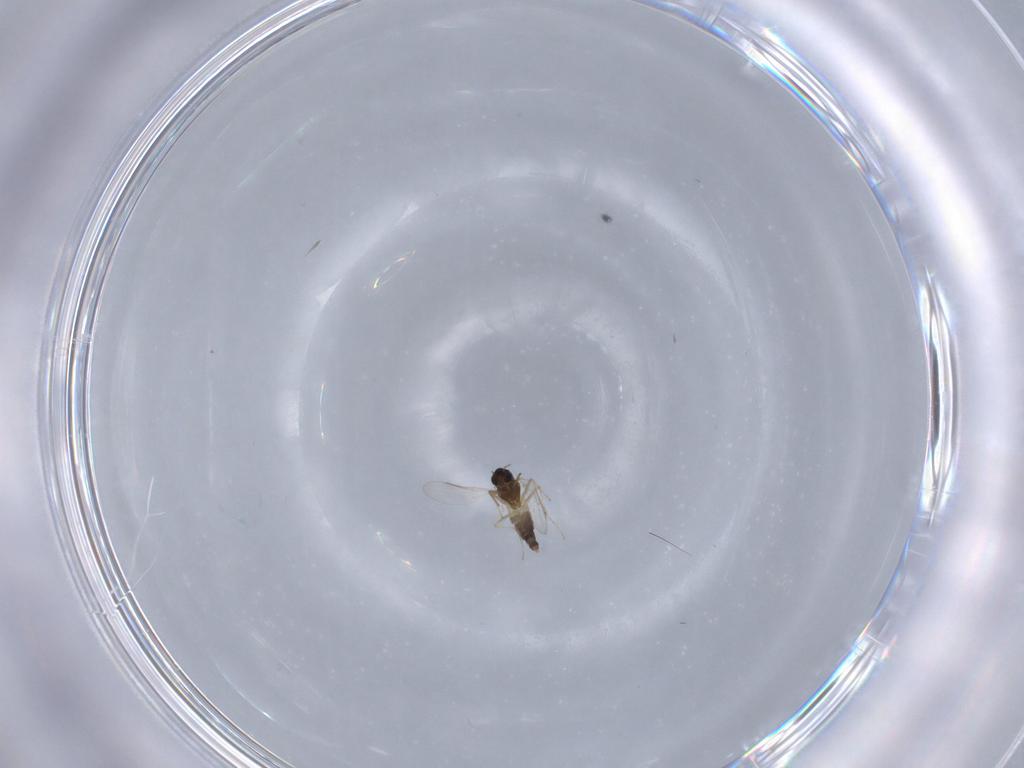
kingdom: Animalia
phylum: Arthropoda
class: Insecta
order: Diptera
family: Chironomidae
